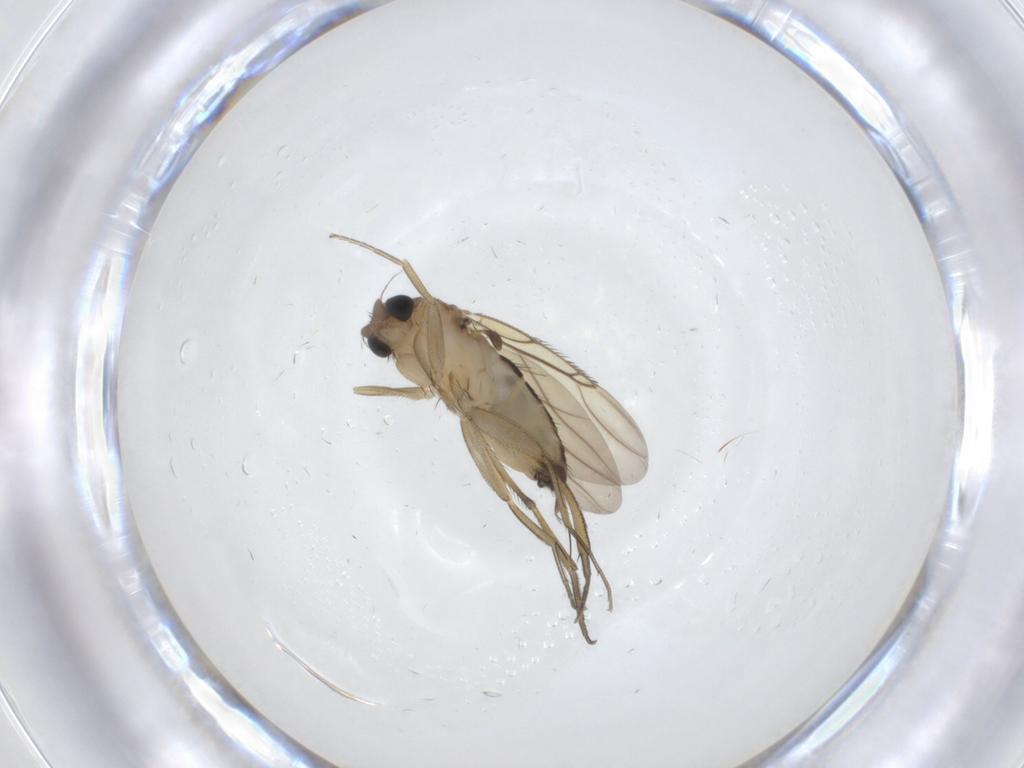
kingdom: Animalia
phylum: Arthropoda
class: Insecta
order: Diptera
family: Phoridae
